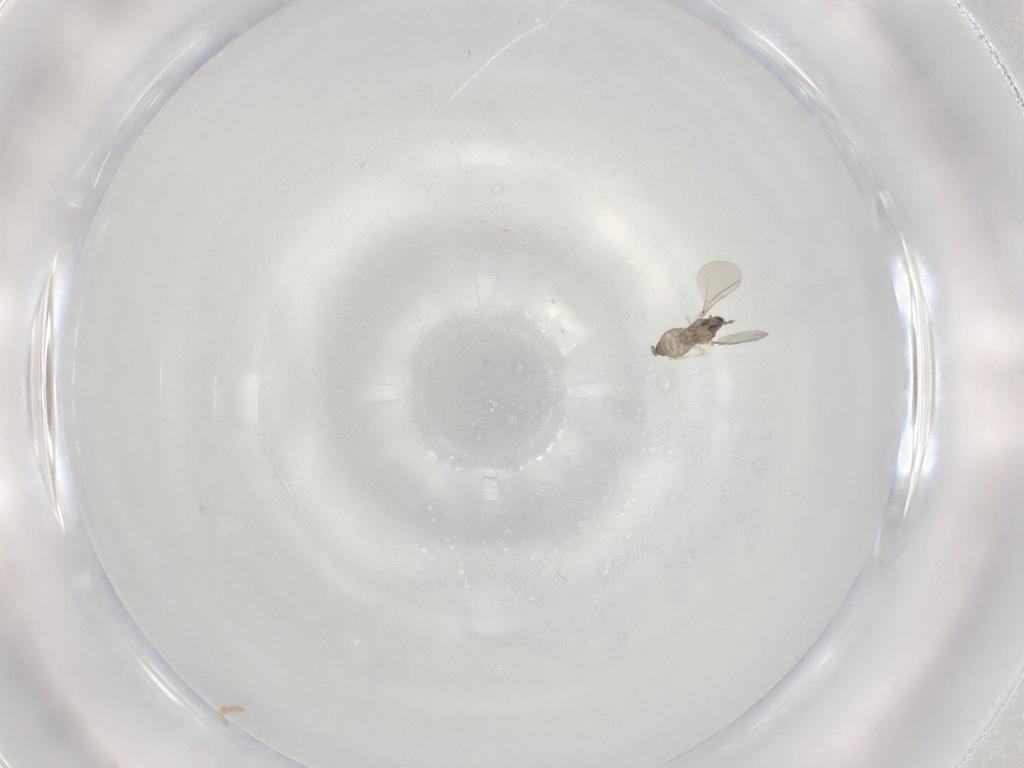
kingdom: Animalia
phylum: Arthropoda
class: Insecta
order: Diptera
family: Cecidomyiidae
